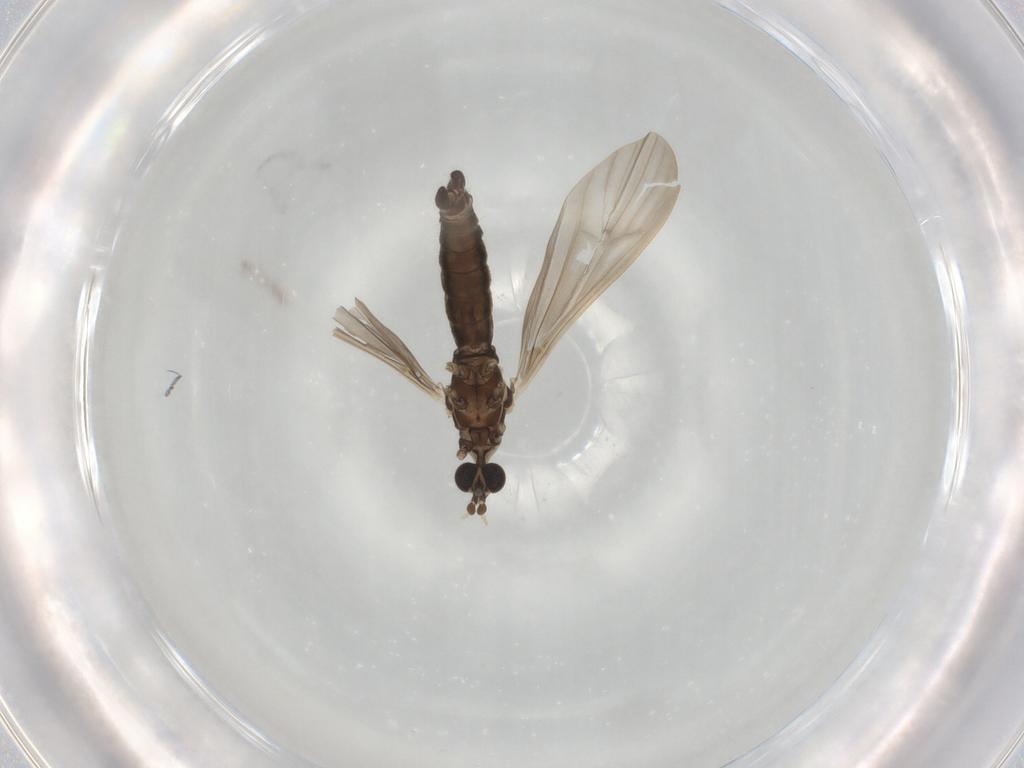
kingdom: Animalia
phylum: Arthropoda
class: Insecta
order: Diptera
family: Limoniidae
